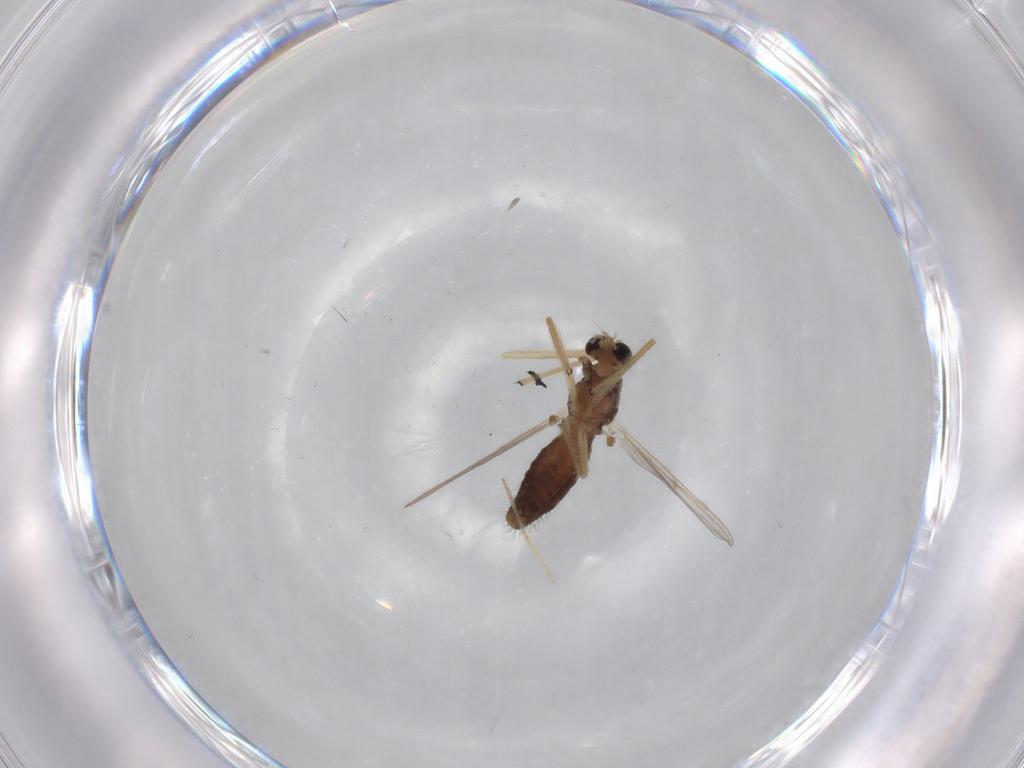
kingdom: Animalia
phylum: Arthropoda
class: Insecta
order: Diptera
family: Chironomidae
